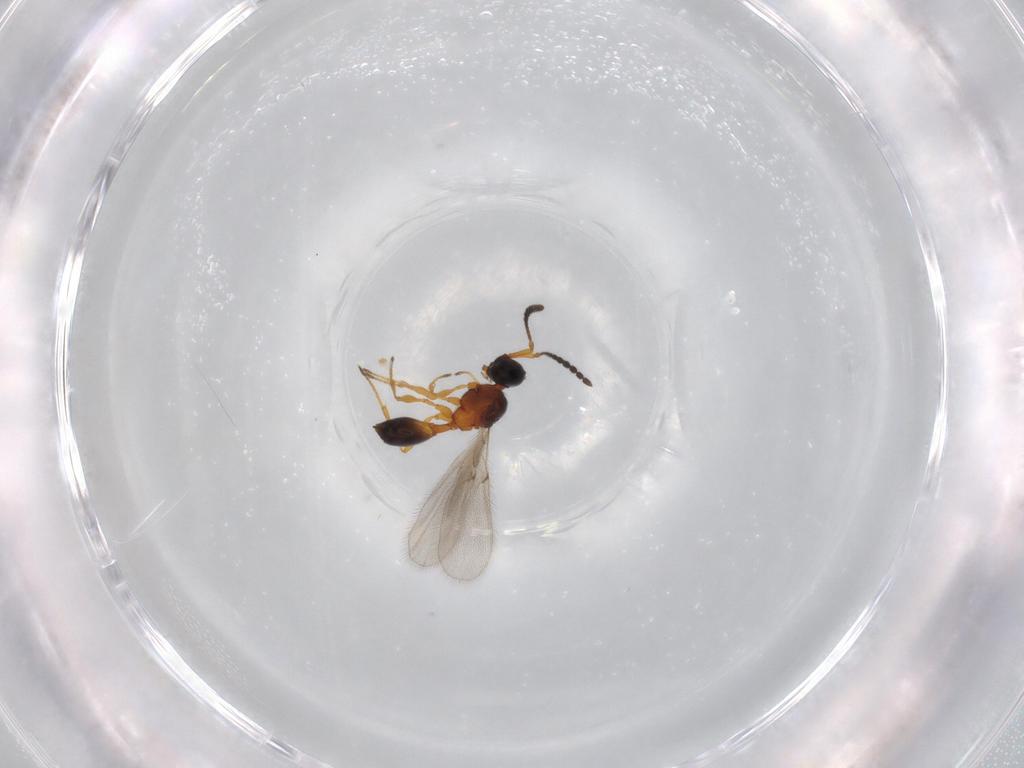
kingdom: Animalia
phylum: Arthropoda
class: Insecta
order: Hymenoptera
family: Diapriidae
